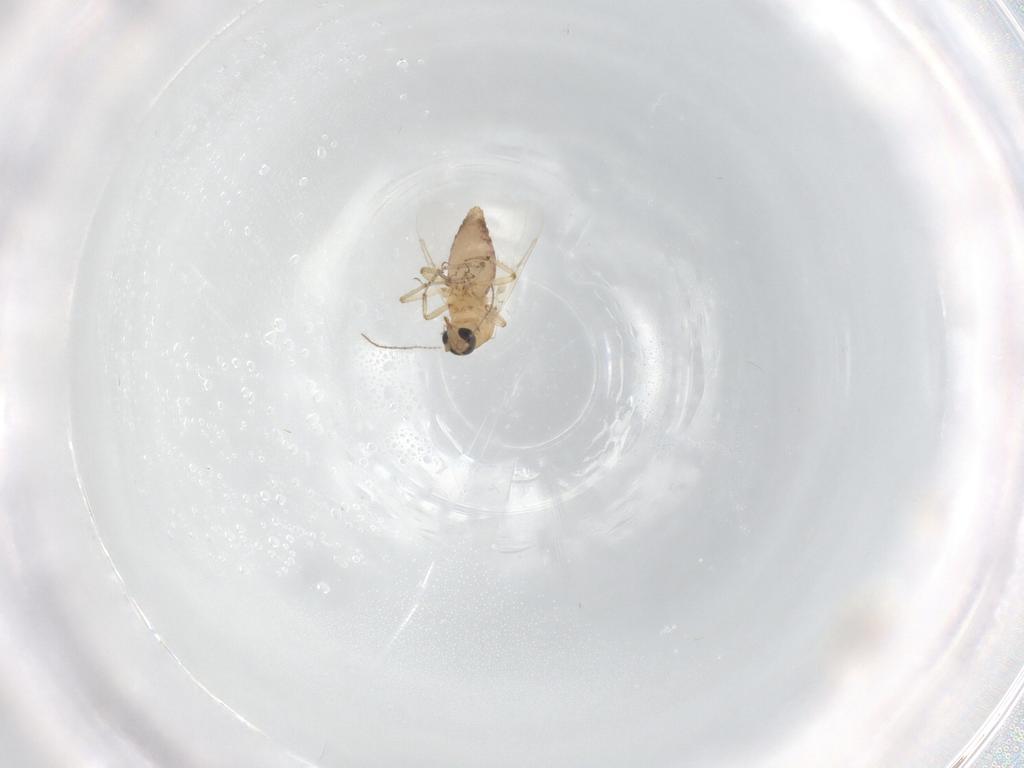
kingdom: Animalia
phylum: Arthropoda
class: Insecta
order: Diptera
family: Ceratopogonidae
